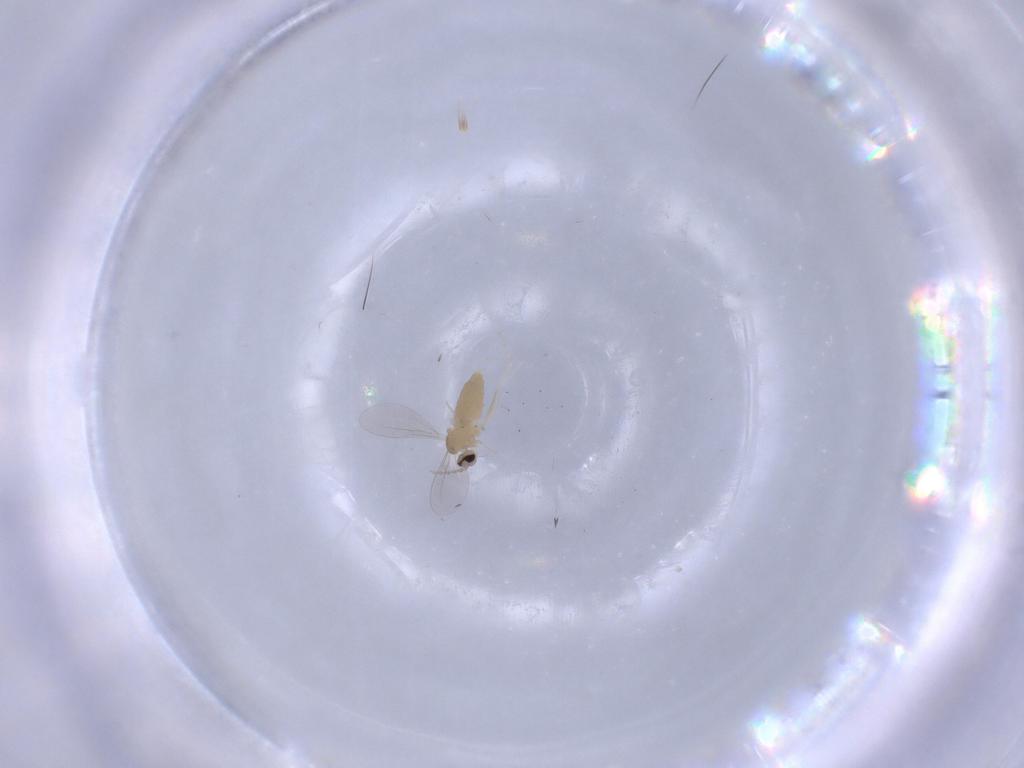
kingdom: Animalia
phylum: Arthropoda
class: Insecta
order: Diptera
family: Cecidomyiidae
